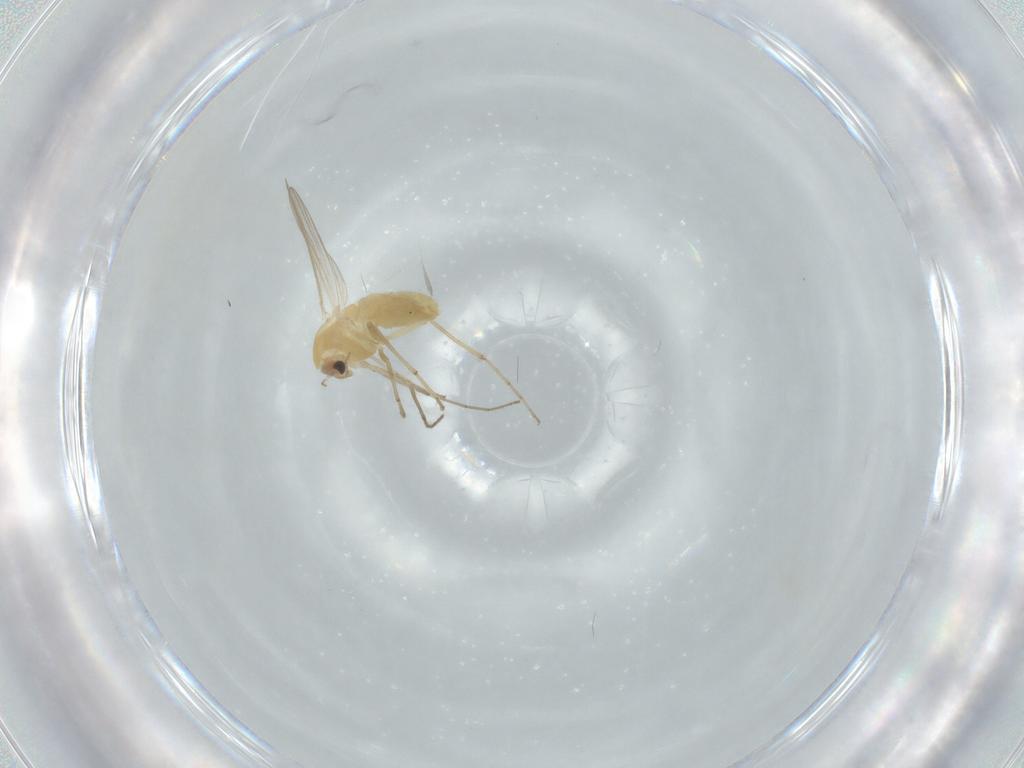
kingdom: Animalia
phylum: Arthropoda
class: Insecta
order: Diptera
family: Chironomidae
